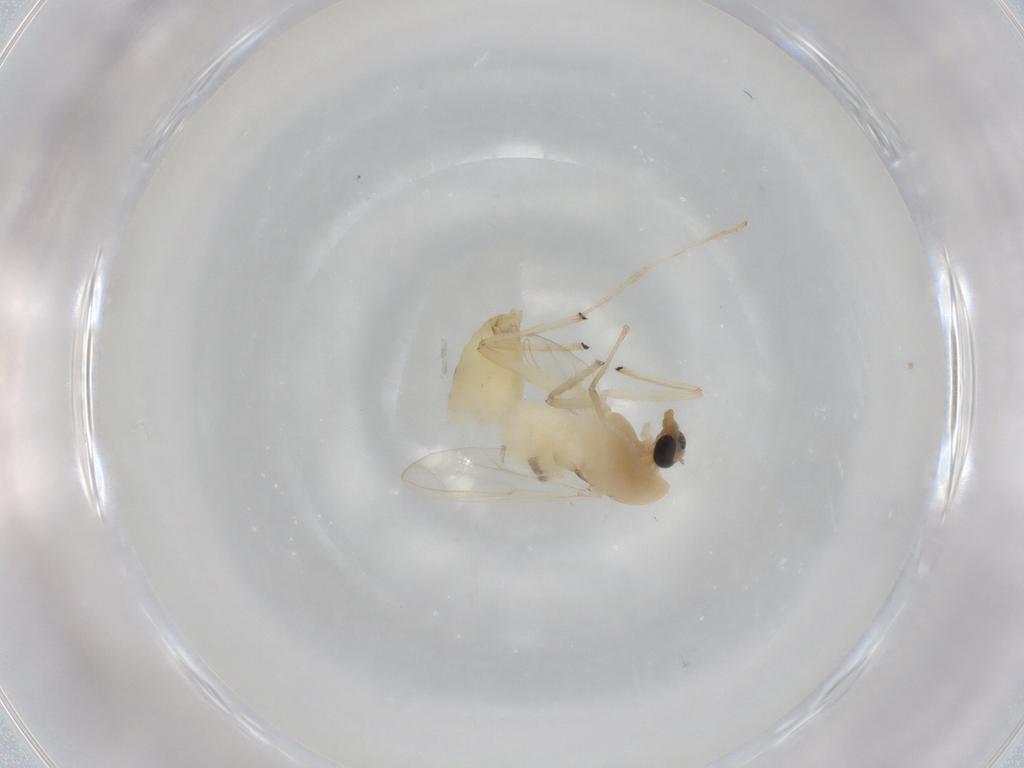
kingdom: Animalia
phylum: Arthropoda
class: Insecta
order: Diptera
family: Chironomidae
